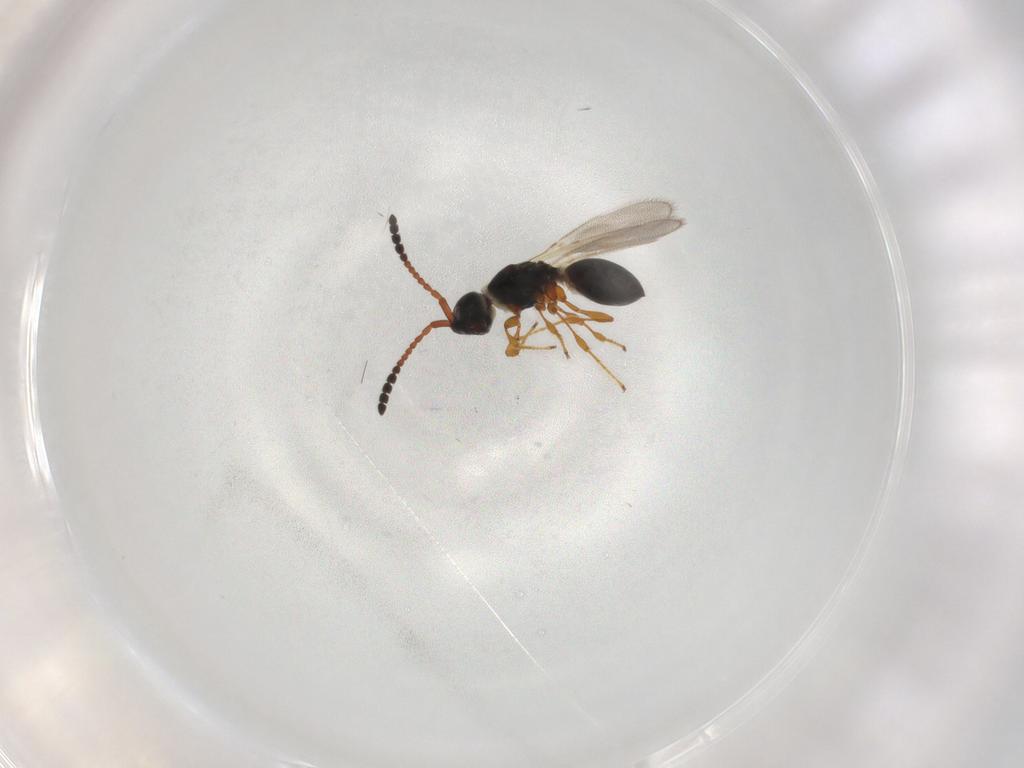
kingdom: Animalia
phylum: Arthropoda
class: Insecta
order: Hymenoptera
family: Diapriidae
